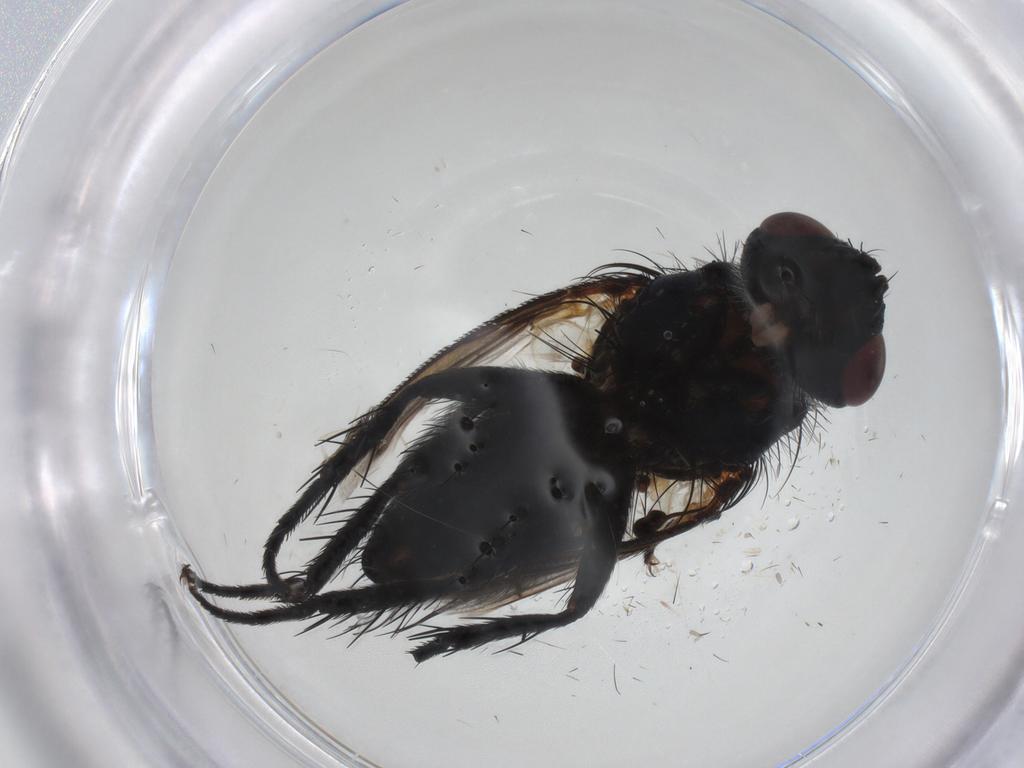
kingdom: Animalia
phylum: Arthropoda
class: Insecta
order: Diptera
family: Tachinidae
